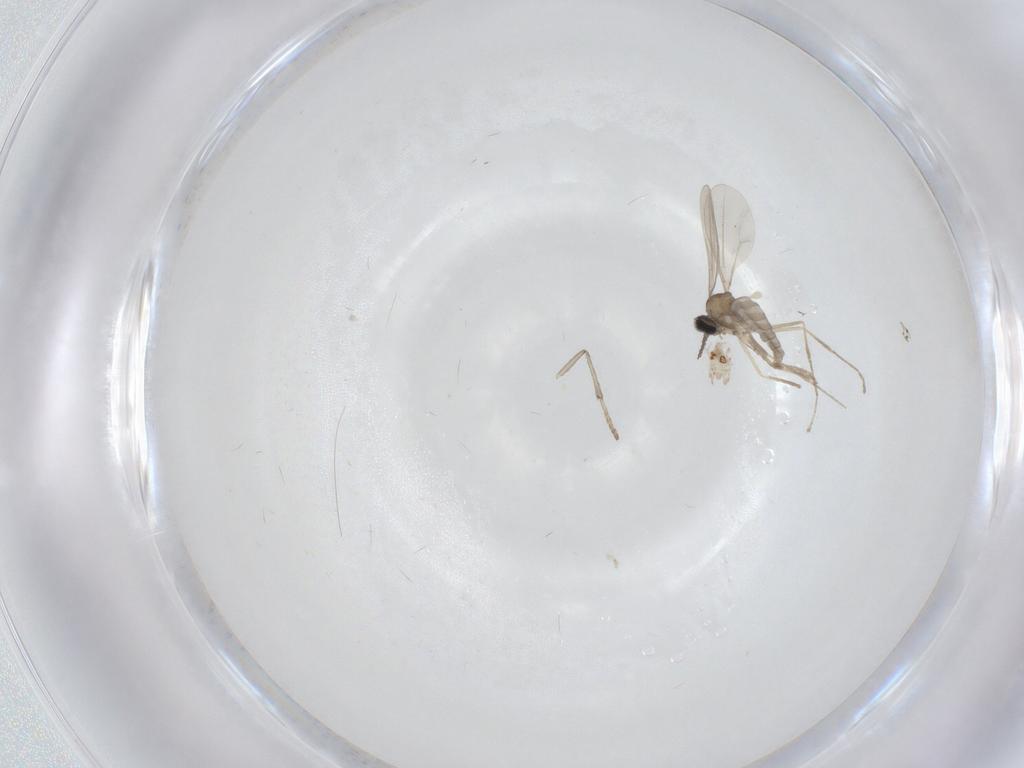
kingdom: Animalia
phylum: Arthropoda
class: Insecta
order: Diptera
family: Cecidomyiidae
